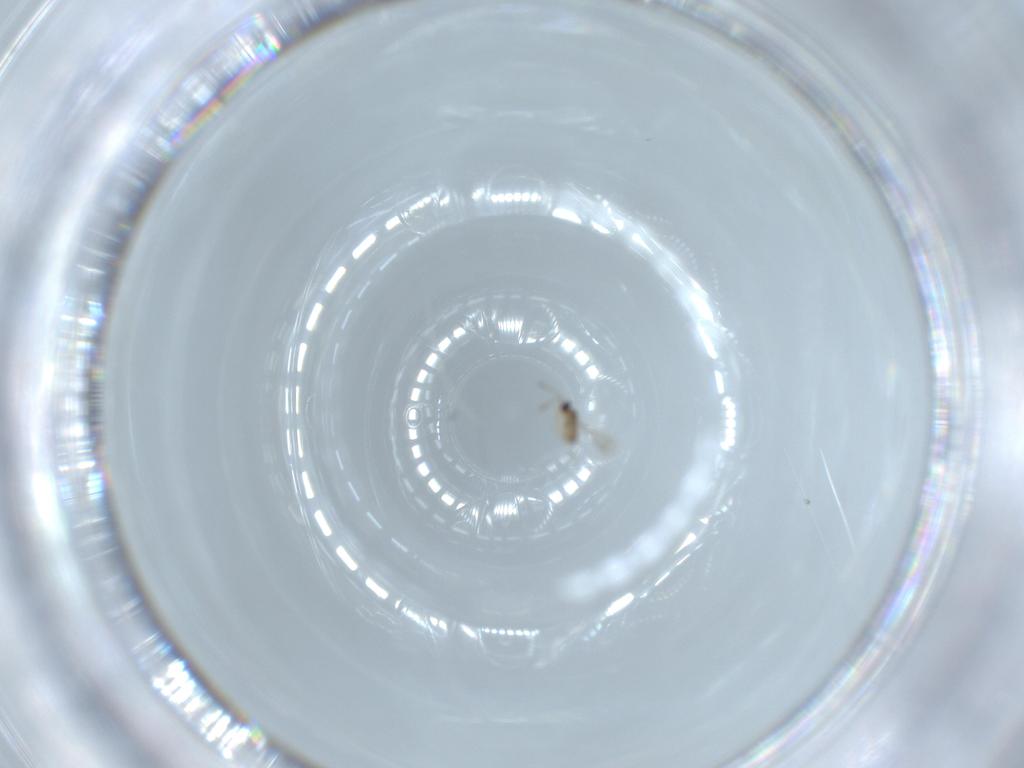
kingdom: Animalia
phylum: Arthropoda
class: Insecta
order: Hymenoptera
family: Mymaridae
